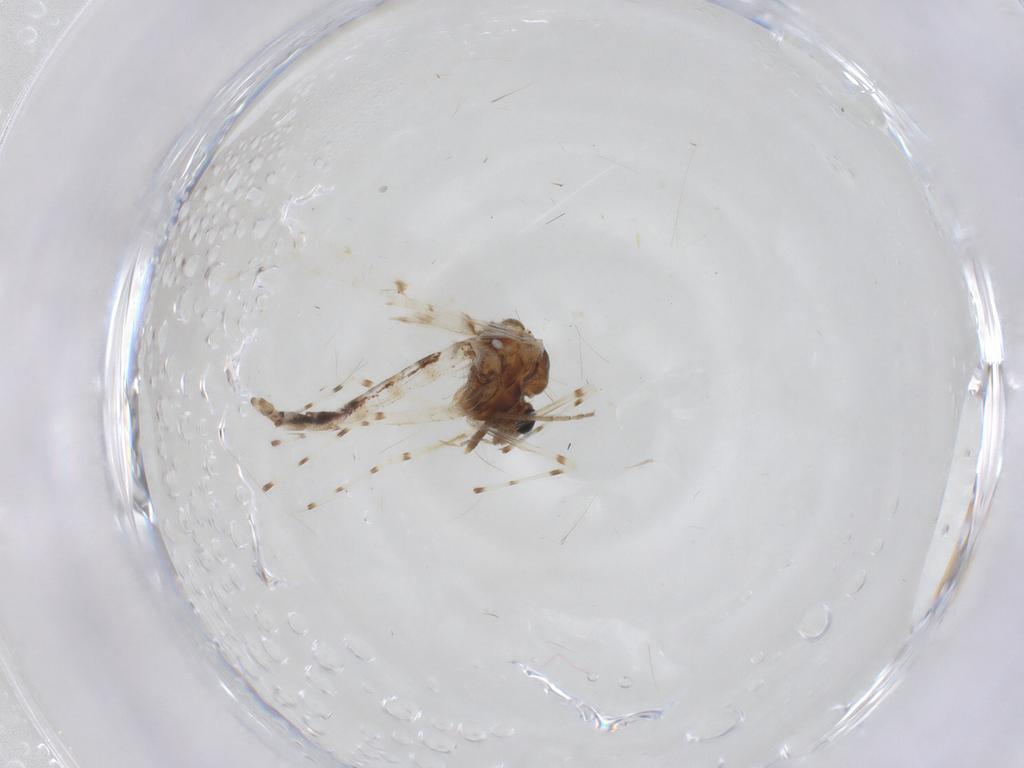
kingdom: Animalia
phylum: Arthropoda
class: Insecta
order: Diptera
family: Chironomidae
